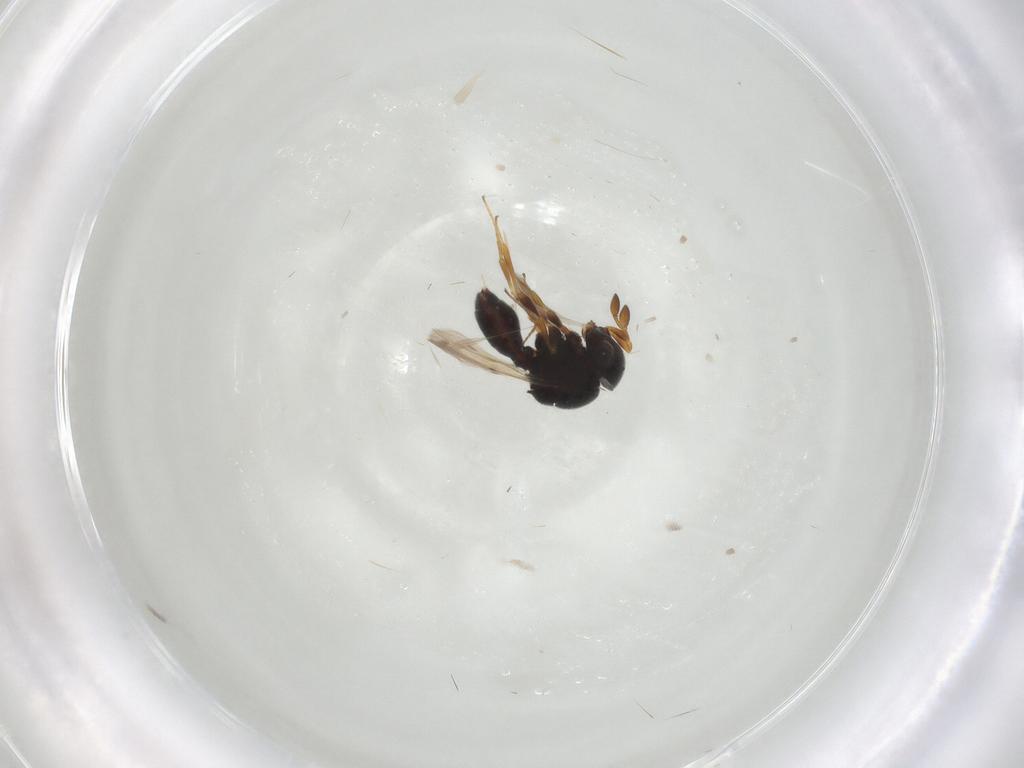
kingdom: Animalia
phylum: Arthropoda
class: Insecta
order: Hymenoptera
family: Scelionidae
